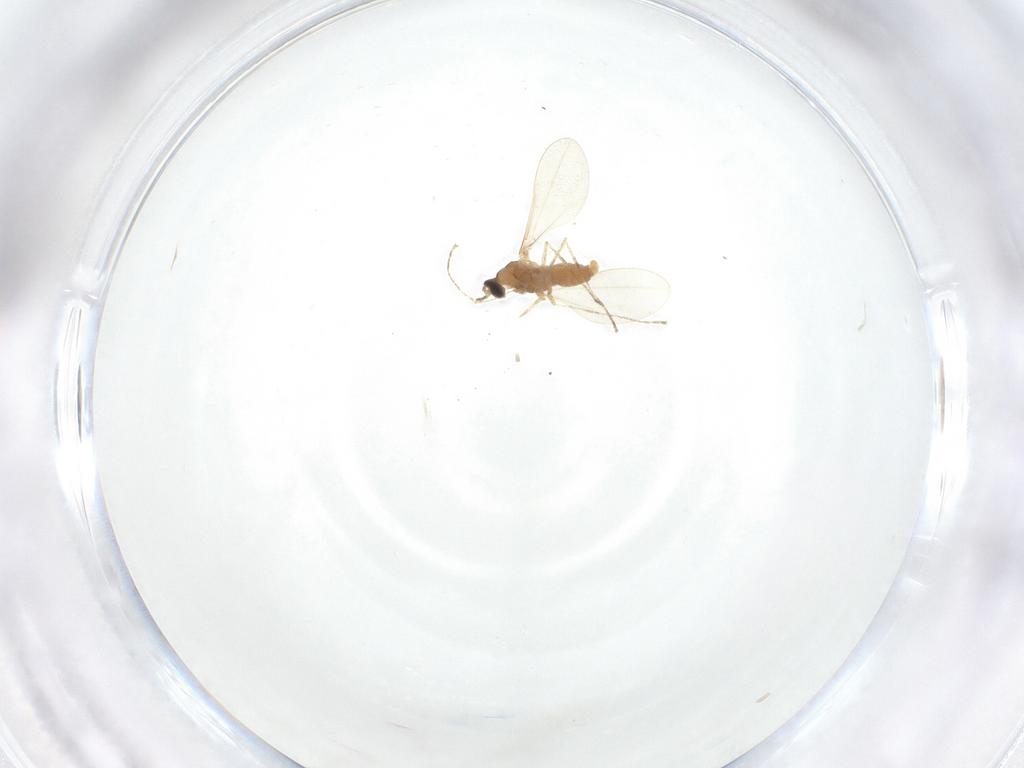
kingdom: Animalia
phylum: Arthropoda
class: Insecta
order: Diptera
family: Cecidomyiidae
